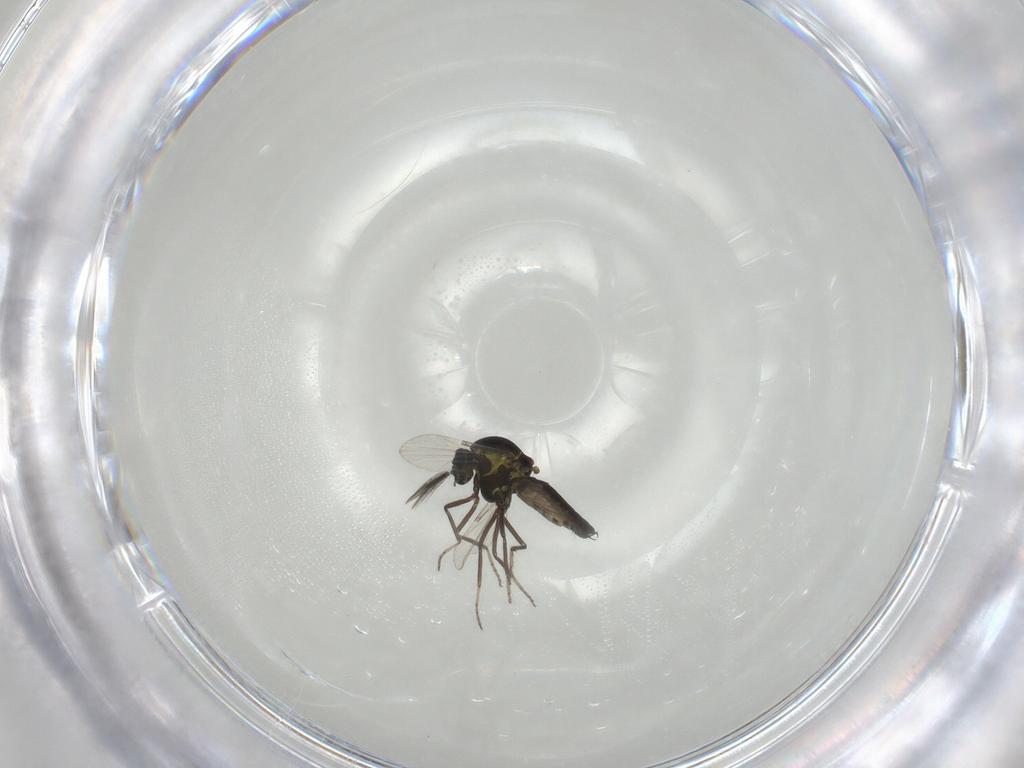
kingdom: Animalia
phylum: Arthropoda
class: Insecta
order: Diptera
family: Ceratopogonidae
